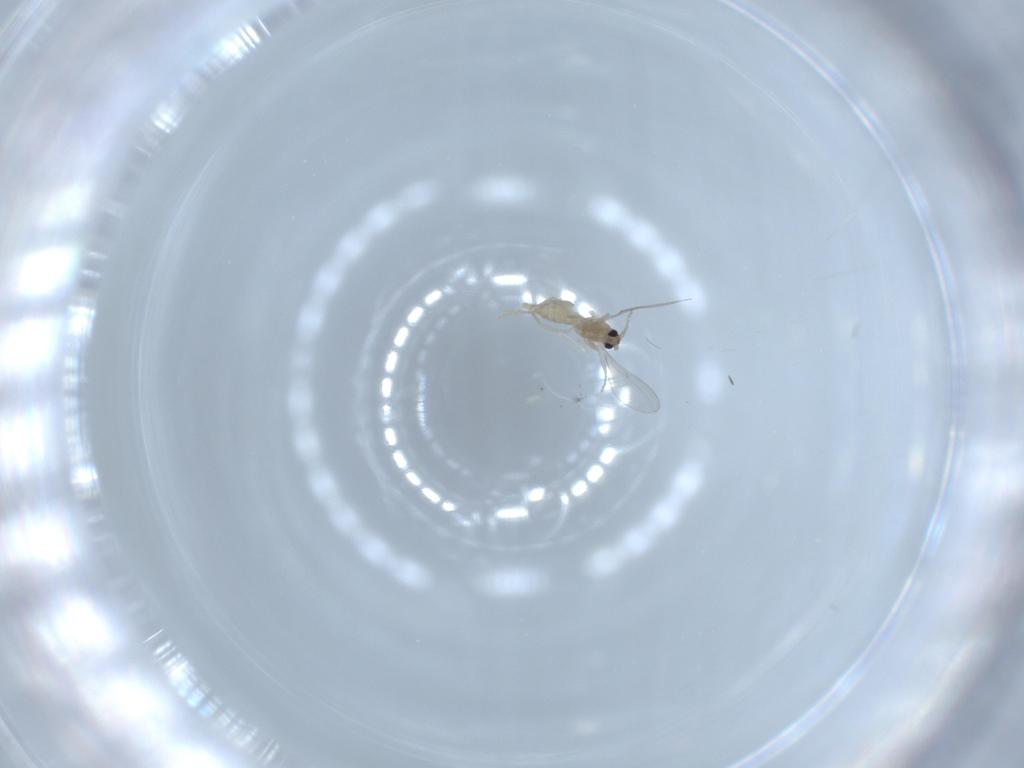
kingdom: Animalia
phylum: Arthropoda
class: Insecta
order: Diptera
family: Cecidomyiidae
